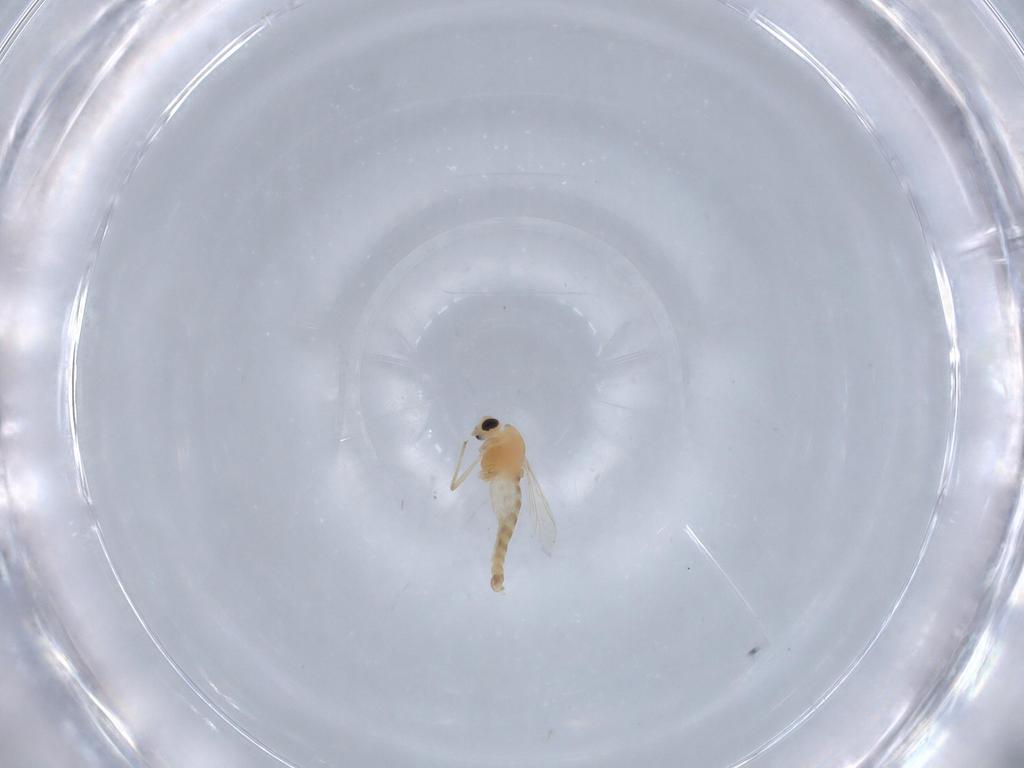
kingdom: Animalia
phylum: Arthropoda
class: Insecta
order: Diptera
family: Chironomidae
